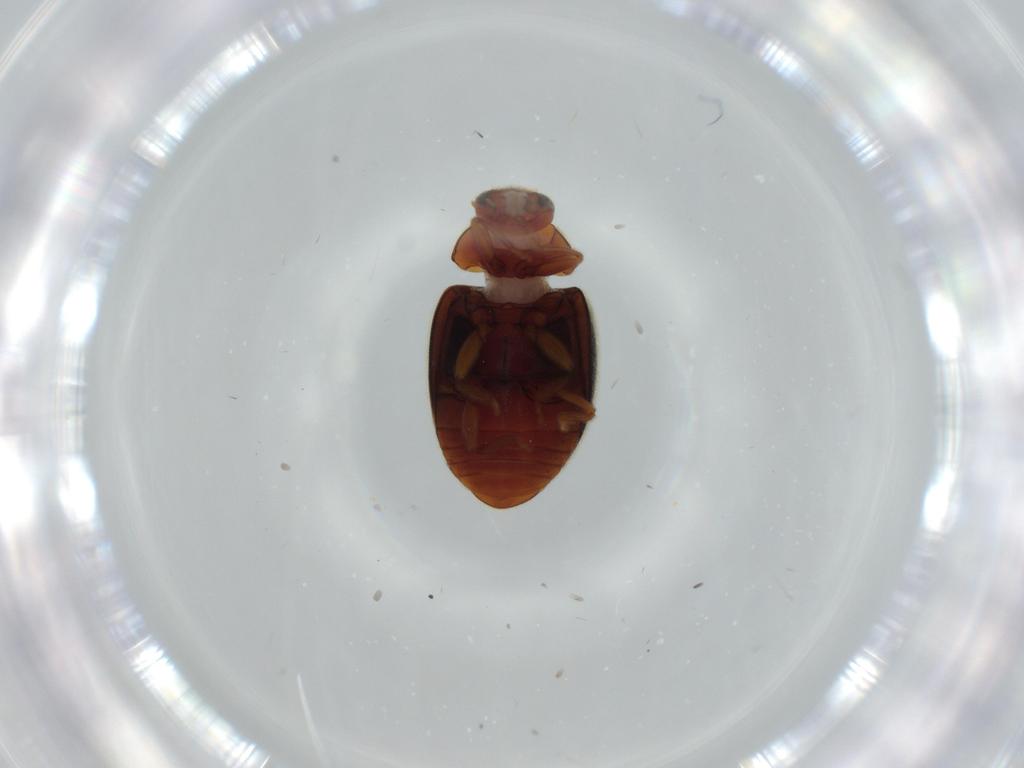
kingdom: Animalia
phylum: Arthropoda
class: Insecta
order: Coleoptera
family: Coccinellidae
